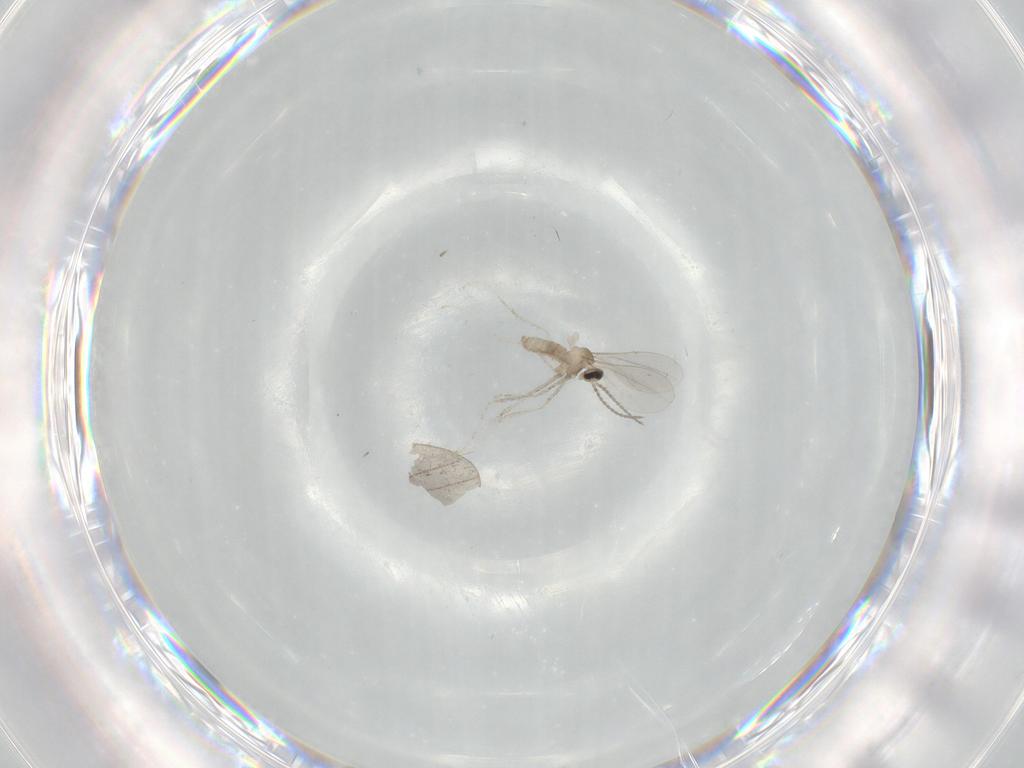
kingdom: Animalia
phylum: Arthropoda
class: Insecta
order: Diptera
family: Cecidomyiidae
